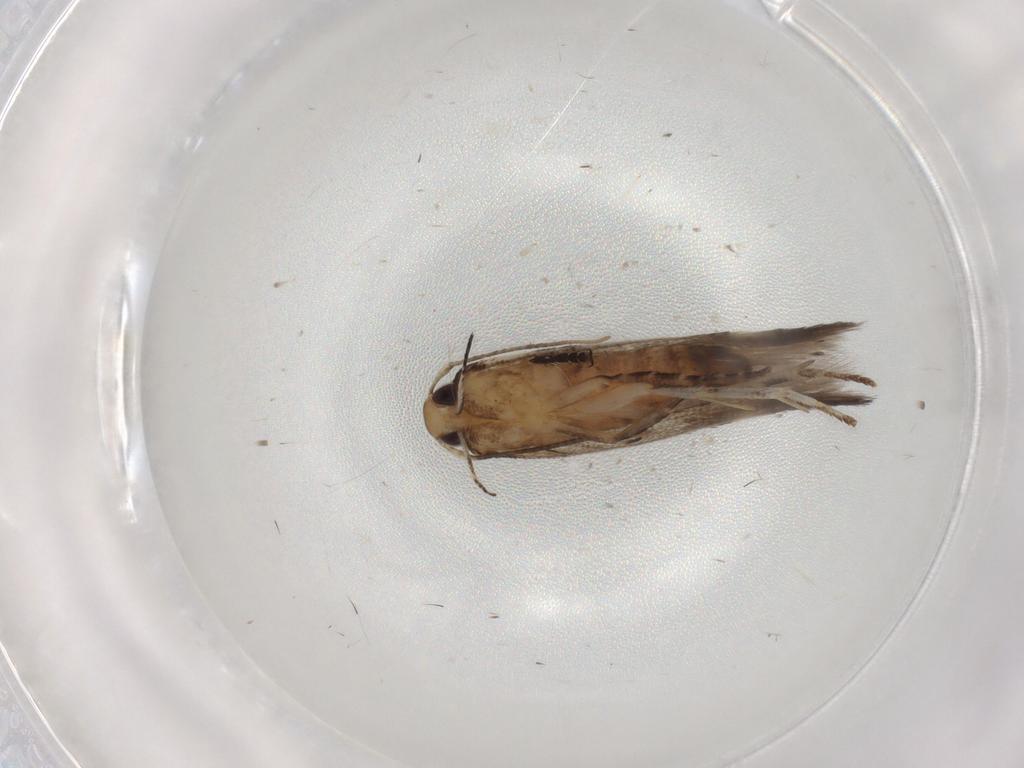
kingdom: Animalia
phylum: Arthropoda
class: Insecta
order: Lepidoptera
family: Cosmopterigidae
